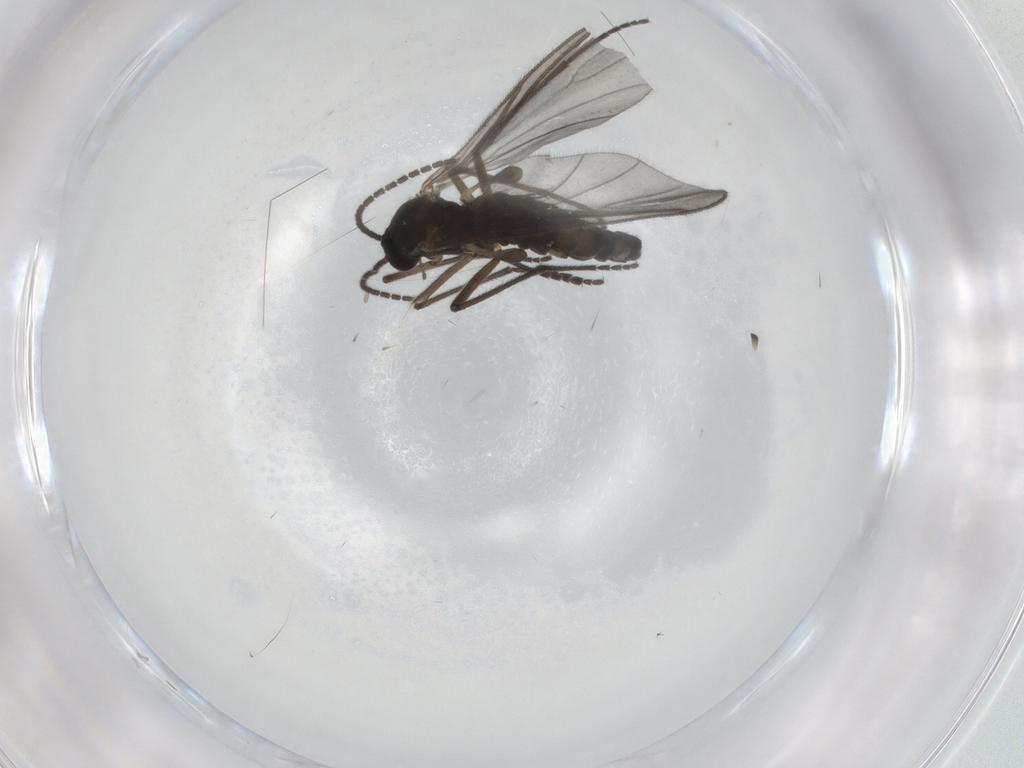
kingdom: Animalia
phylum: Arthropoda
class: Insecta
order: Diptera
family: Sciaridae
